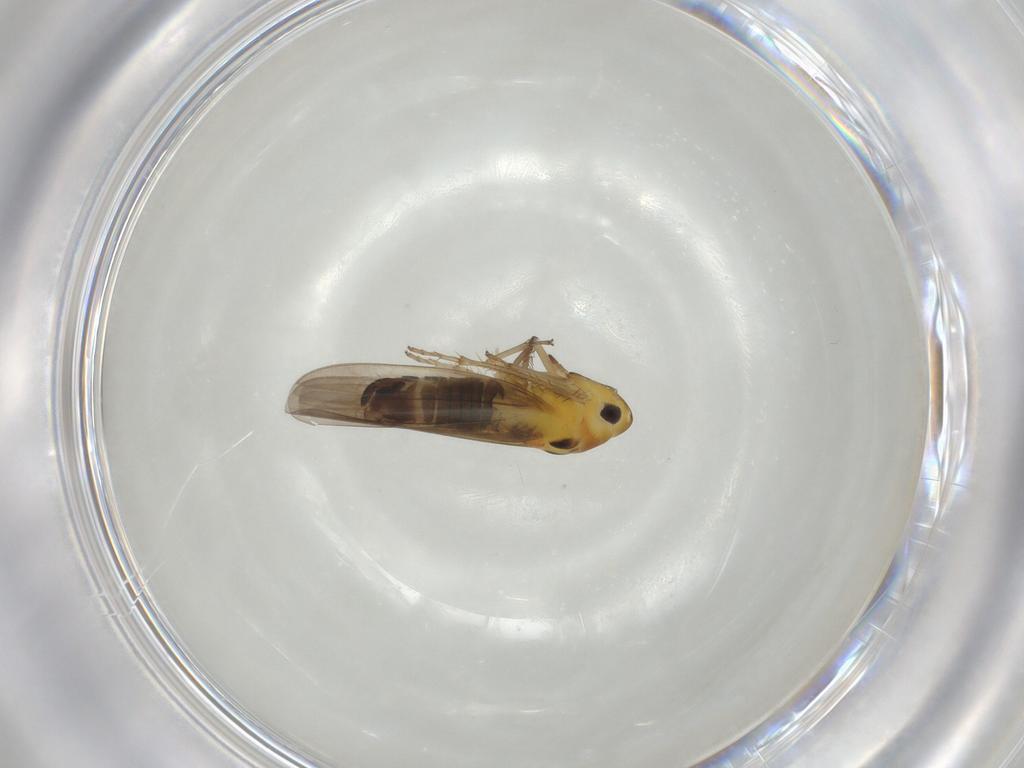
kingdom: Animalia
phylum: Arthropoda
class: Insecta
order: Hemiptera
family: Cicadellidae
